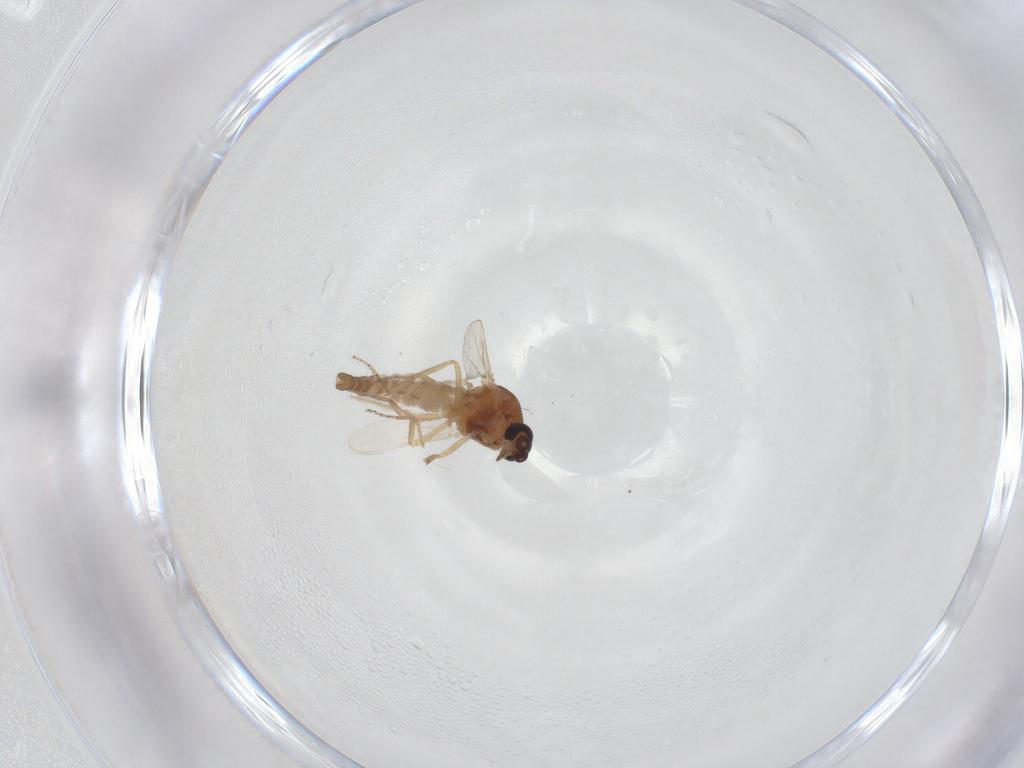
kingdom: Animalia
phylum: Arthropoda
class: Insecta
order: Diptera
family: Ceratopogonidae
